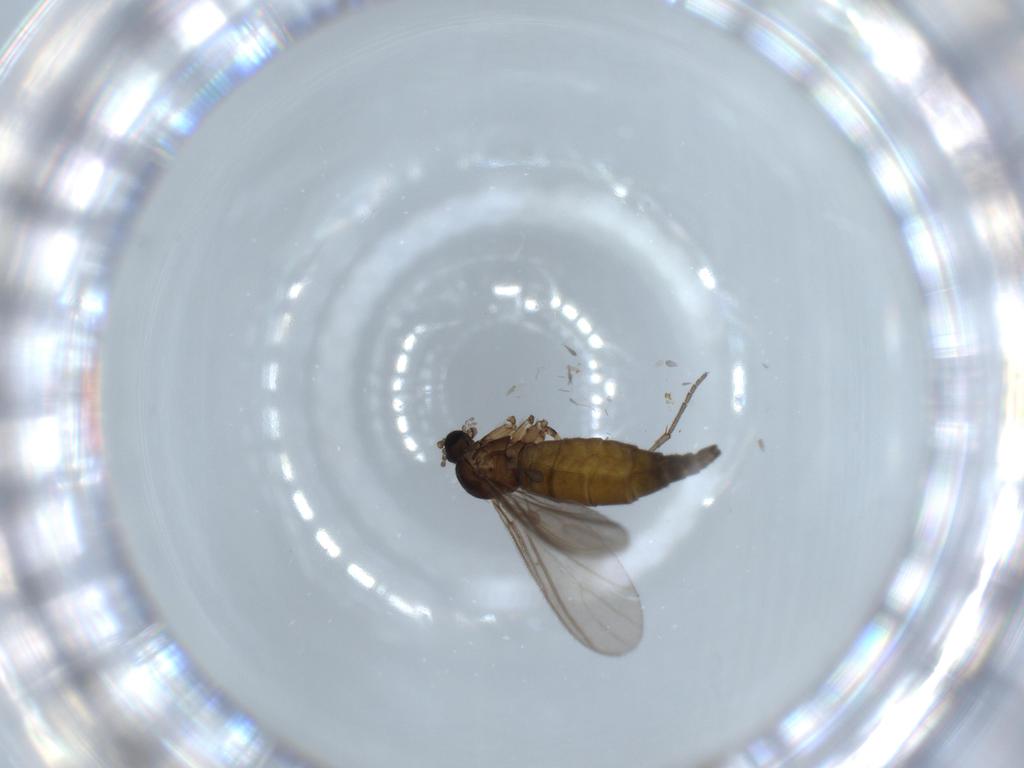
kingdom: Animalia
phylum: Arthropoda
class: Insecta
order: Diptera
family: Sciaridae
